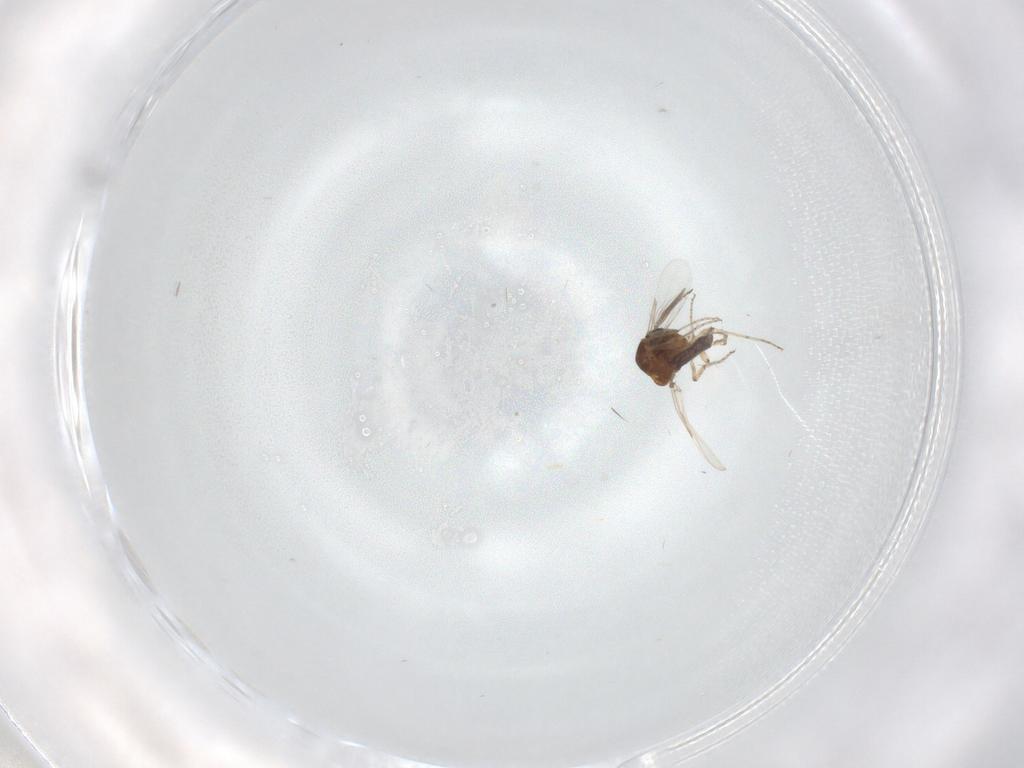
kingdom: Animalia
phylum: Arthropoda
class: Insecta
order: Diptera
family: Ceratopogonidae
